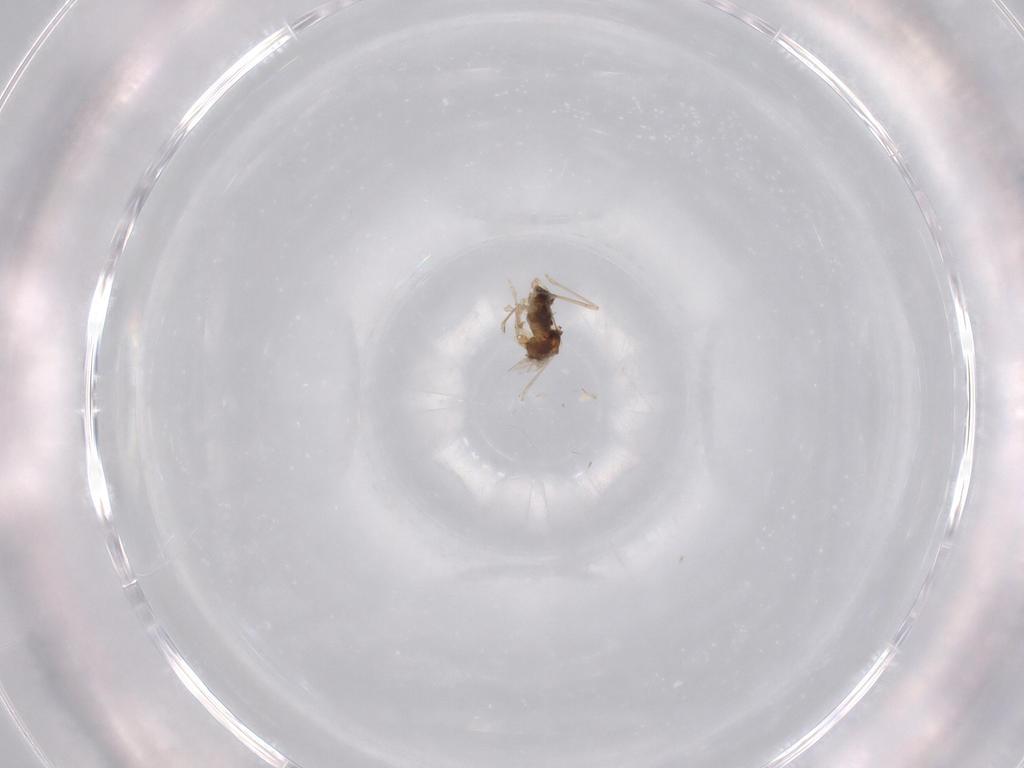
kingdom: Animalia
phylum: Arthropoda
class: Insecta
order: Diptera
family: Cecidomyiidae
